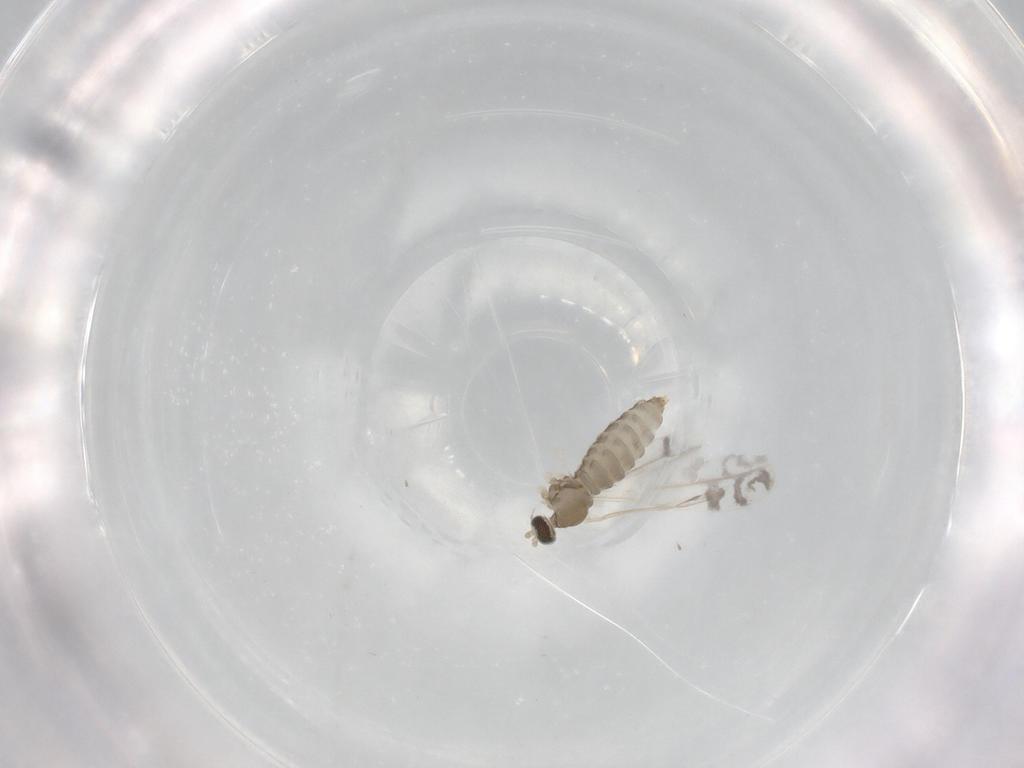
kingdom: Animalia
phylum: Arthropoda
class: Insecta
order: Diptera
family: Cecidomyiidae
